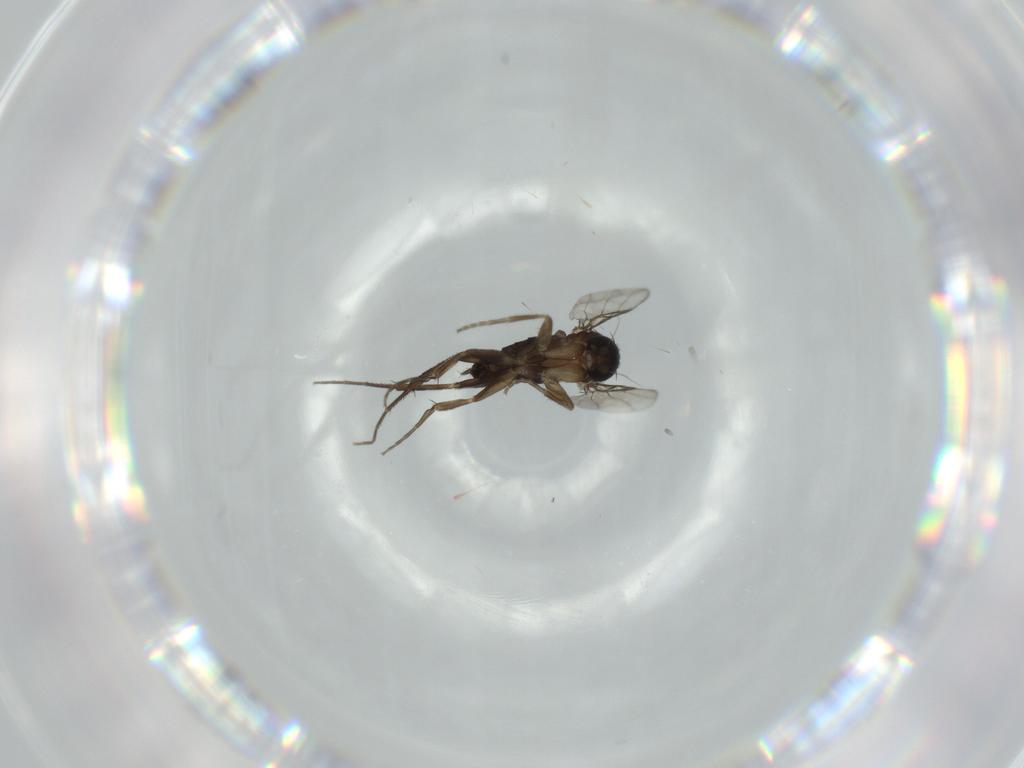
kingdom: Animalia
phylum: Arthropoda
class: Insecta
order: Diptera
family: Phoridae
